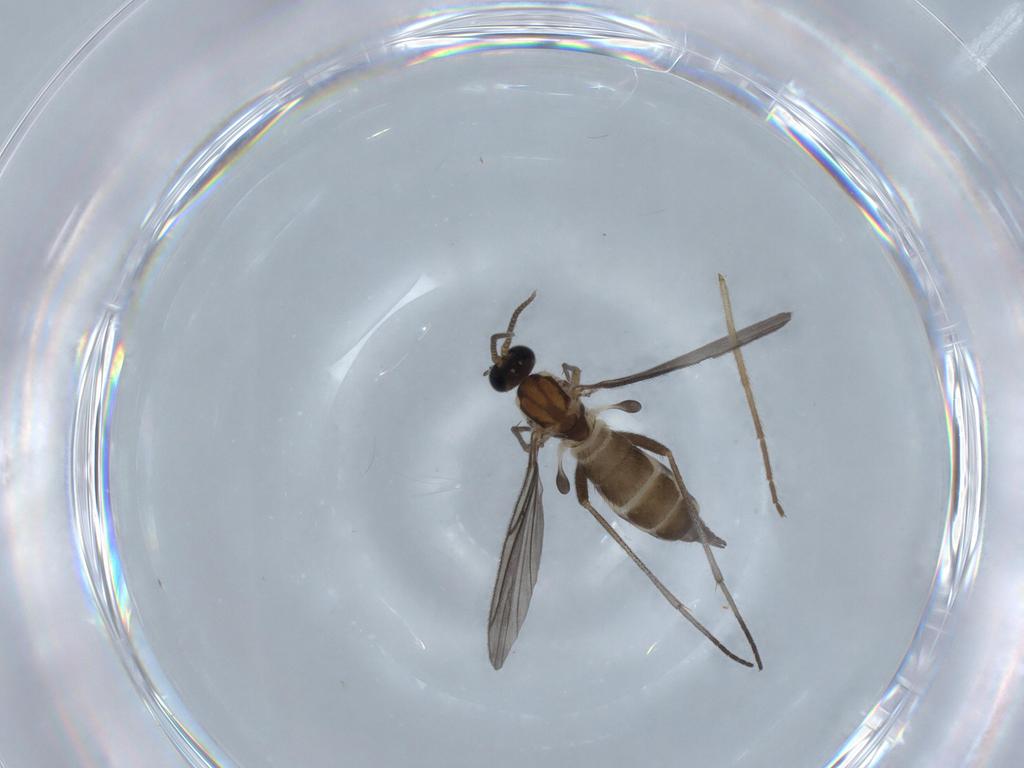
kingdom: Animalia
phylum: Arthropoda
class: Insecta
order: Diptera
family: Sciaridae
